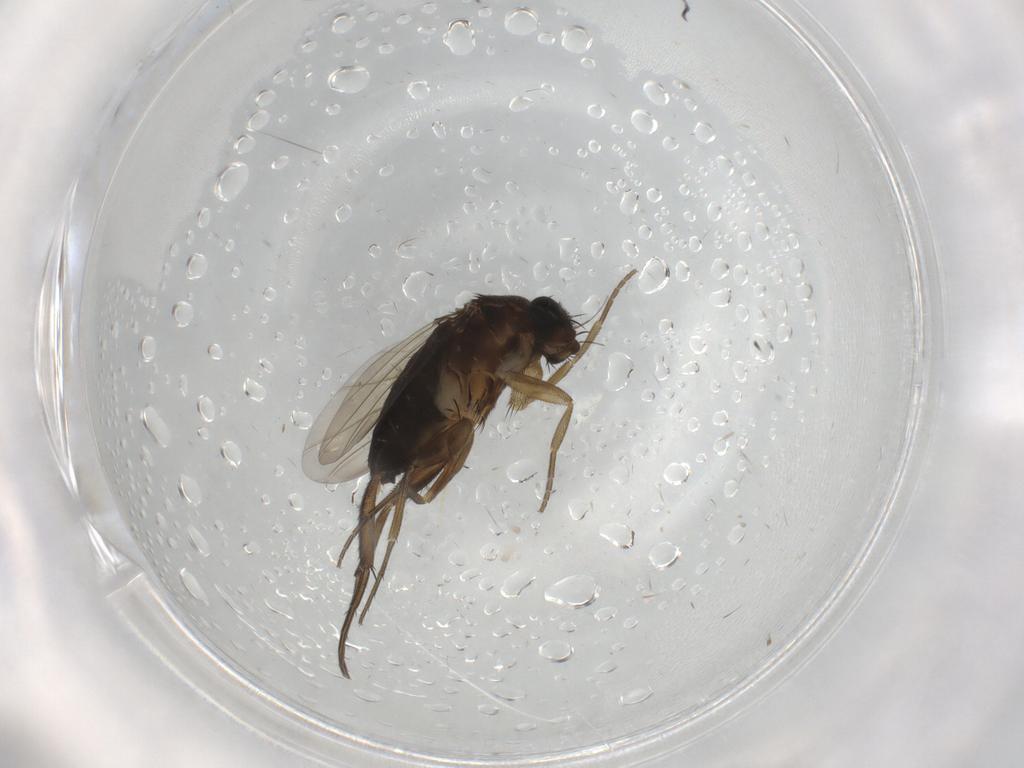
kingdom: Animalia
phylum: Arthropoda
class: Insecta
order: Diptera
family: Phoridae
